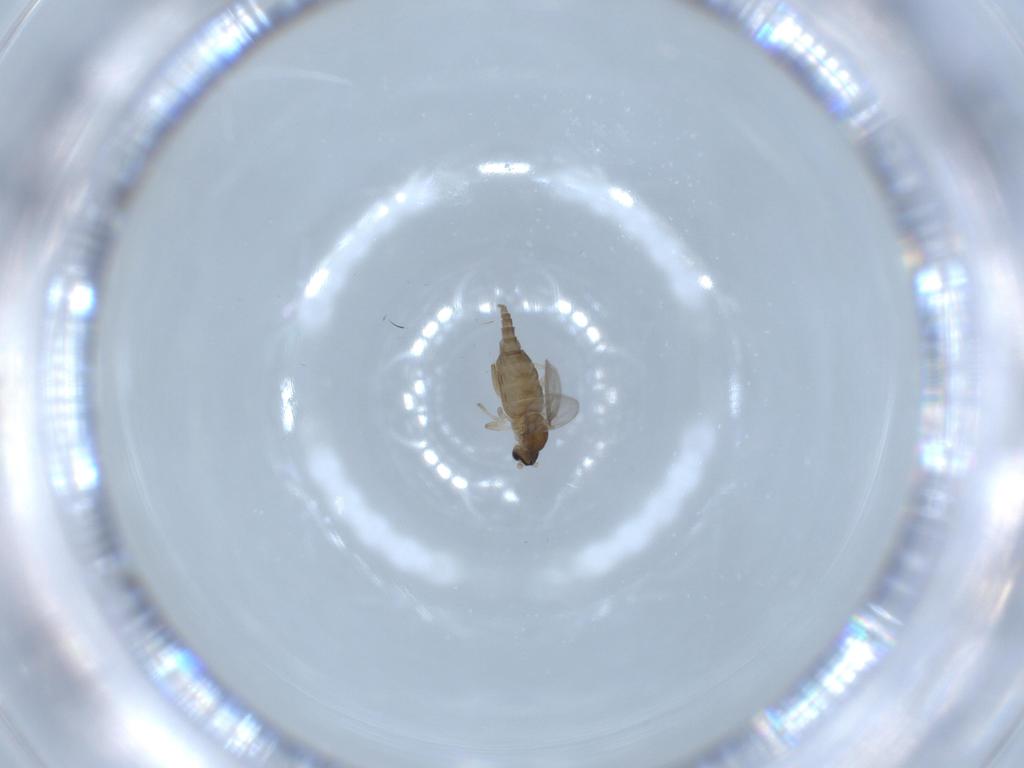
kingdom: Animalia
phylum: Arthropoda
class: Insecta
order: Diptera
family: Cecidomyiidae
